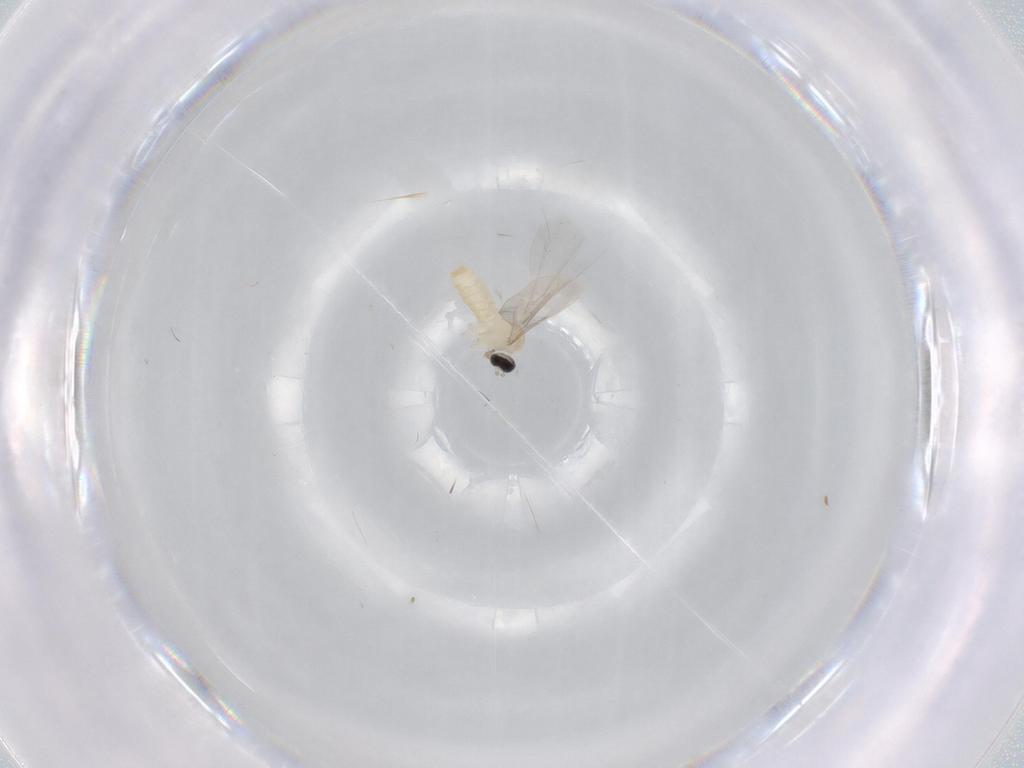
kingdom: Animalia
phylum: Arthropoda
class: Insecta
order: Diptera
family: Cecidomyiidae
